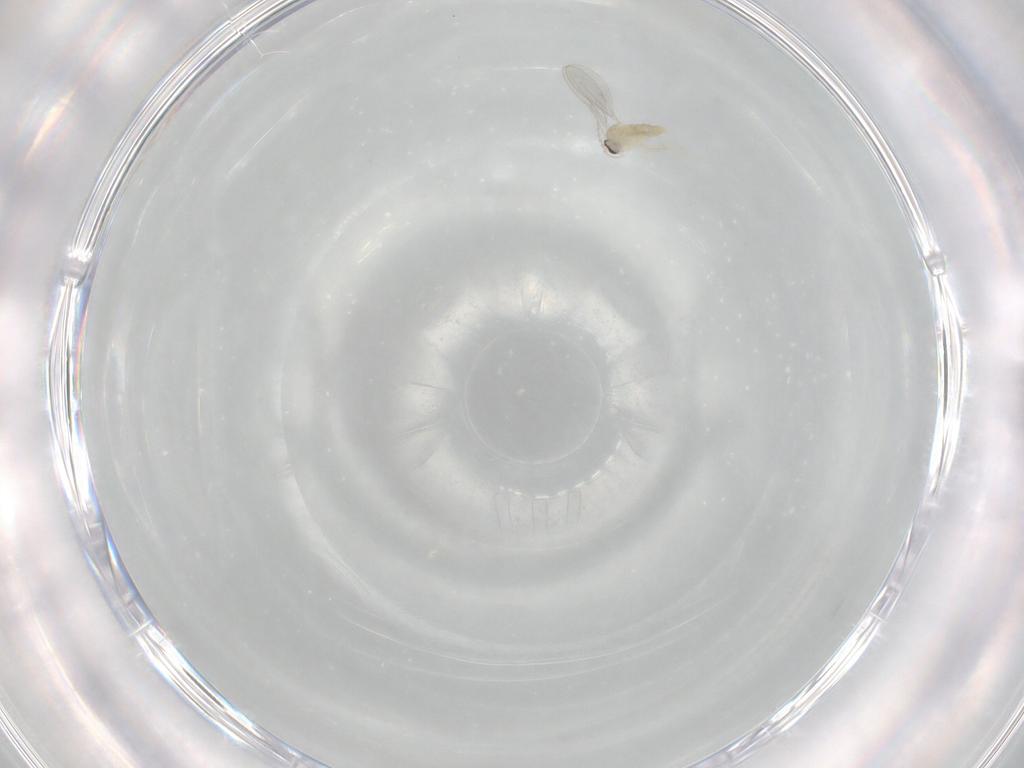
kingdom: Animalia
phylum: Arthropoda
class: Insecta
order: Diptera
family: Cecidomyiidae
